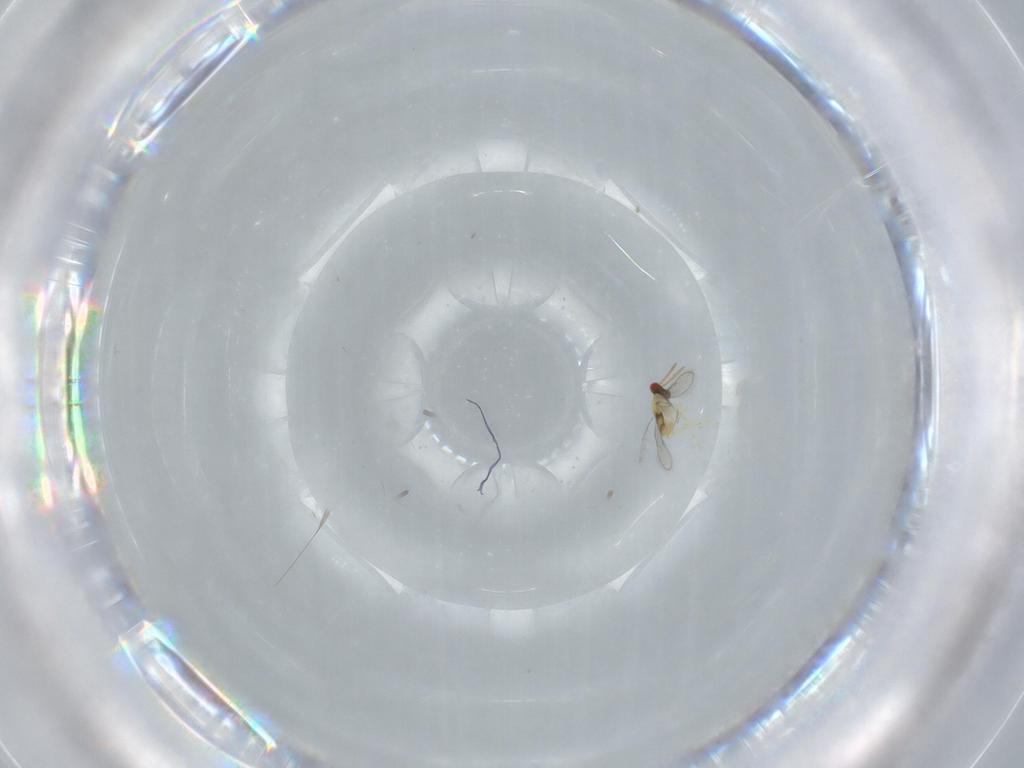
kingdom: Animalia
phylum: Arthropoda
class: Insecta
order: Hymenoptera
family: Aphelinidae
